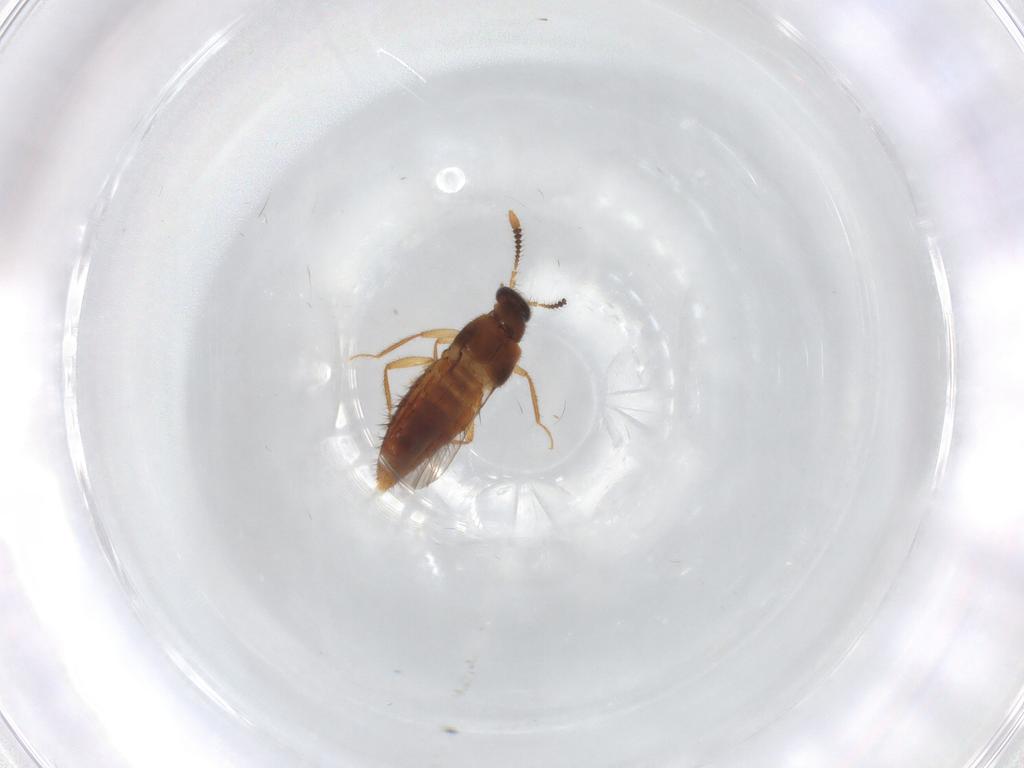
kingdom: Animalia
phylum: Arthropoda
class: Insecta
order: Coleoptera
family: Staphylinidae
